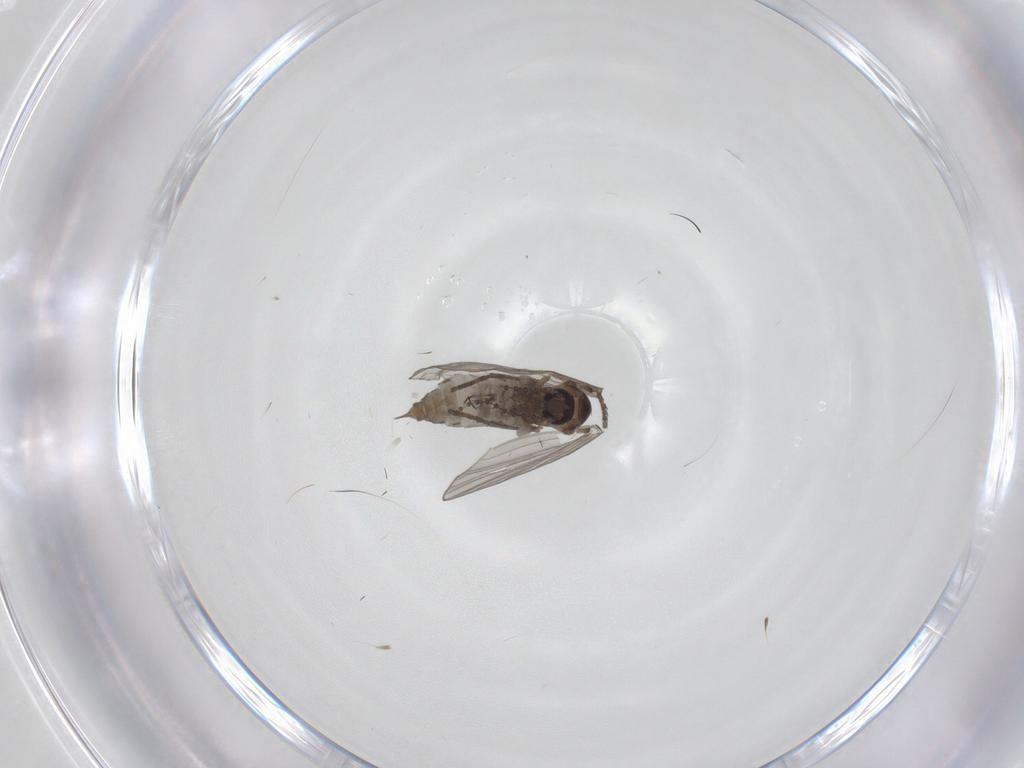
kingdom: Animalia
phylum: Arthropoda
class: Insecta
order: Diptera
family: Psychodidae
